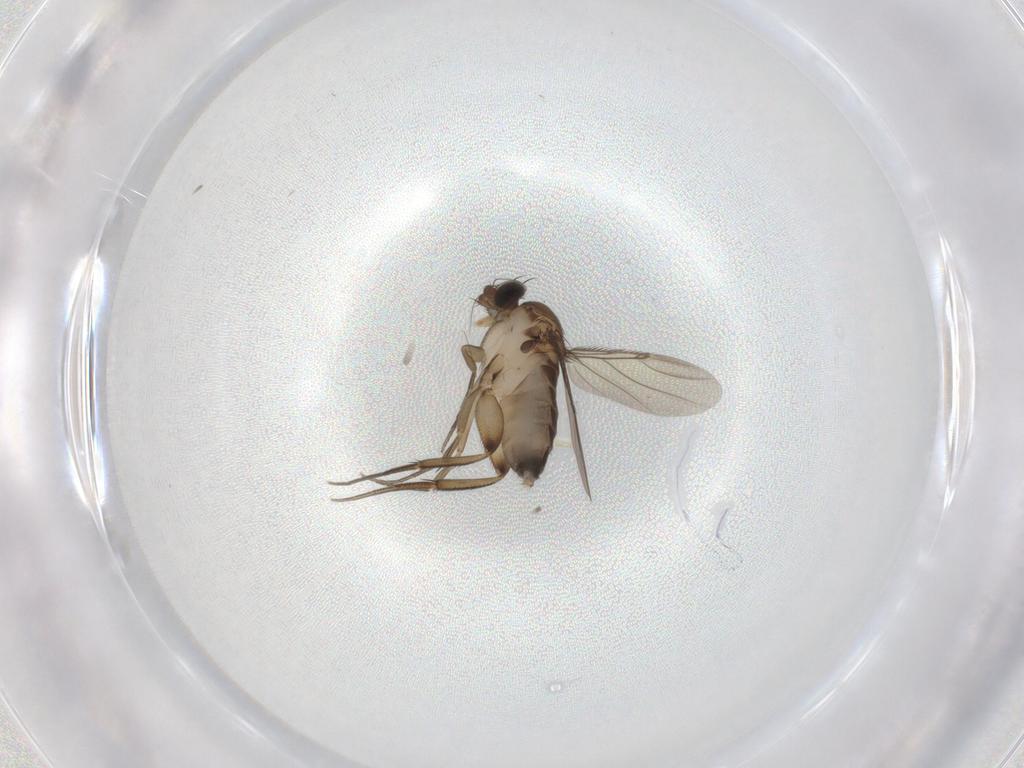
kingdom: Animalia
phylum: Arthropoda
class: Insecta
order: Diptera
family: Phoridae
